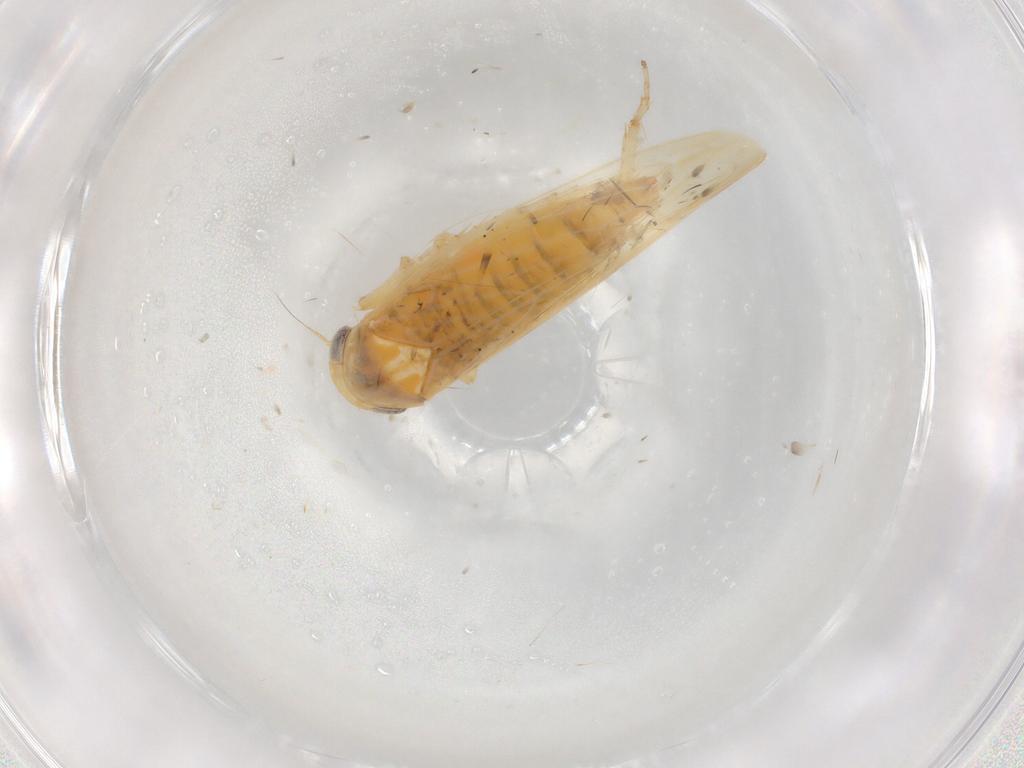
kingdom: Animalia
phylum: Arthropoda
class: Insecta
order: Hemiptera
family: Cicadellidae
